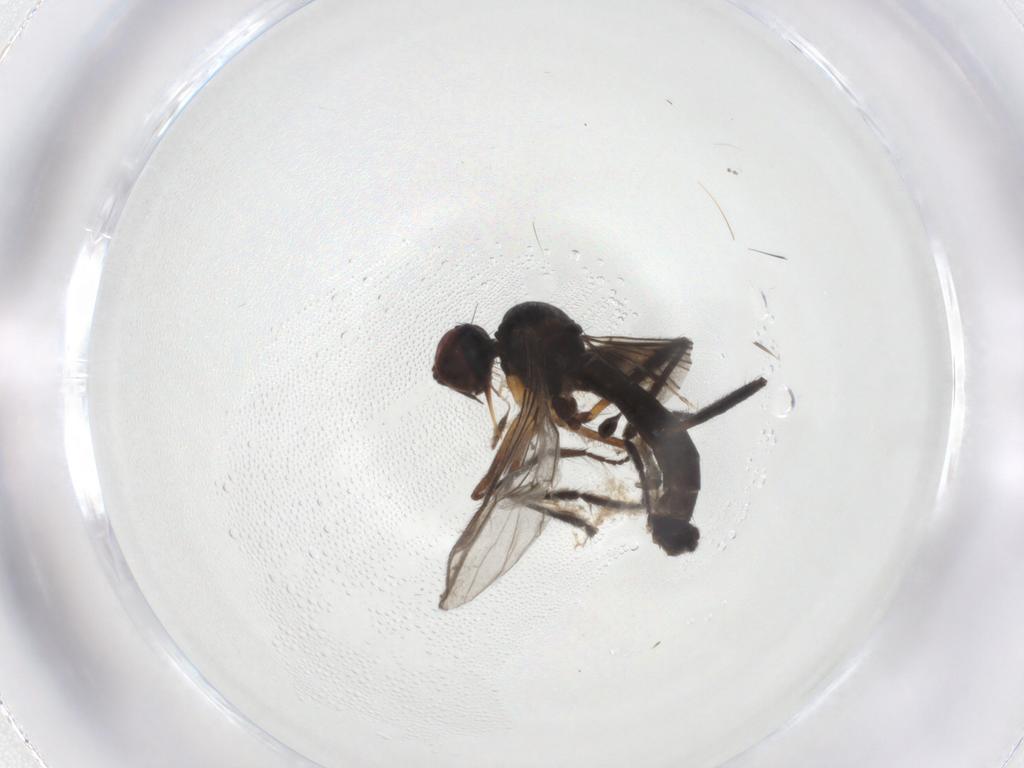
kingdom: Animalia
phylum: Arthropoda
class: Insecta
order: Diptera
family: Empididae
